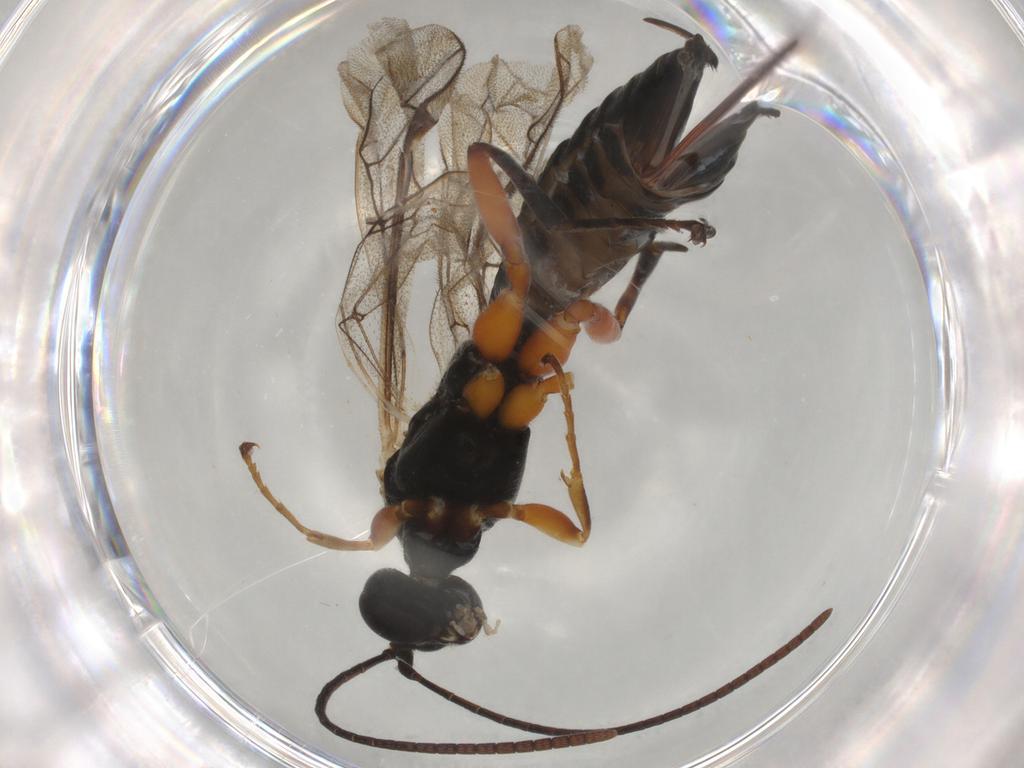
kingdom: Animalia
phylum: Arthropoda
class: Insecta
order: Hymenoptera
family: Ichneumonidae
